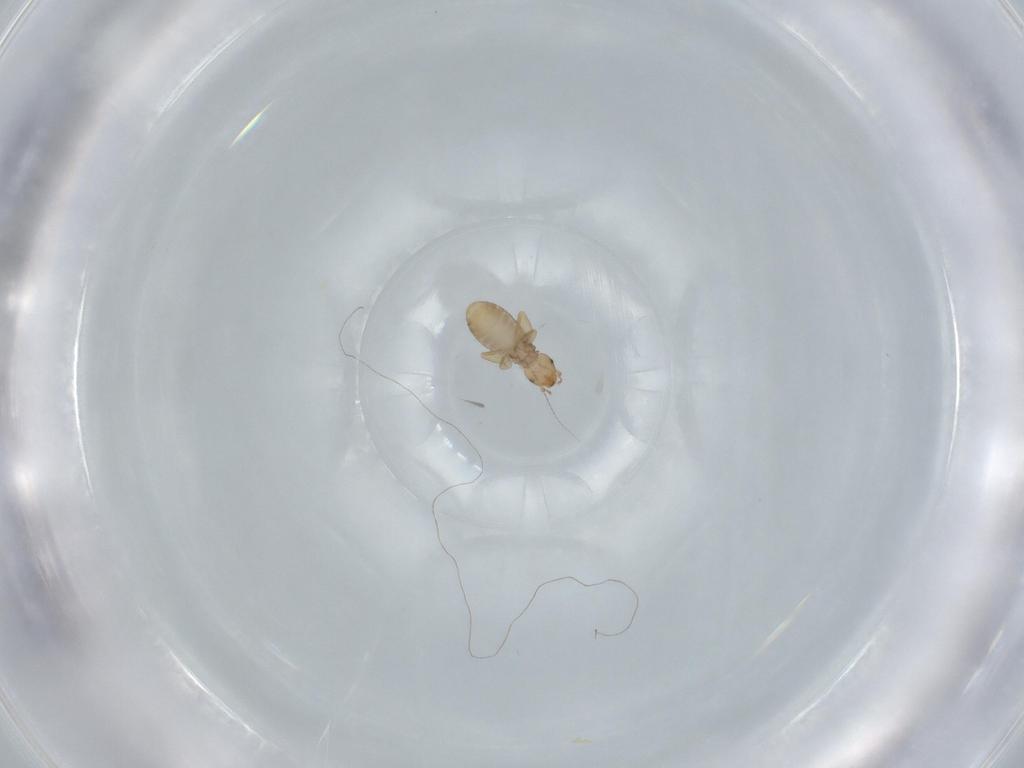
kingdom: Animalia
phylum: Arthropoda
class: Insecta
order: Psocodea
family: Liposcelididae
